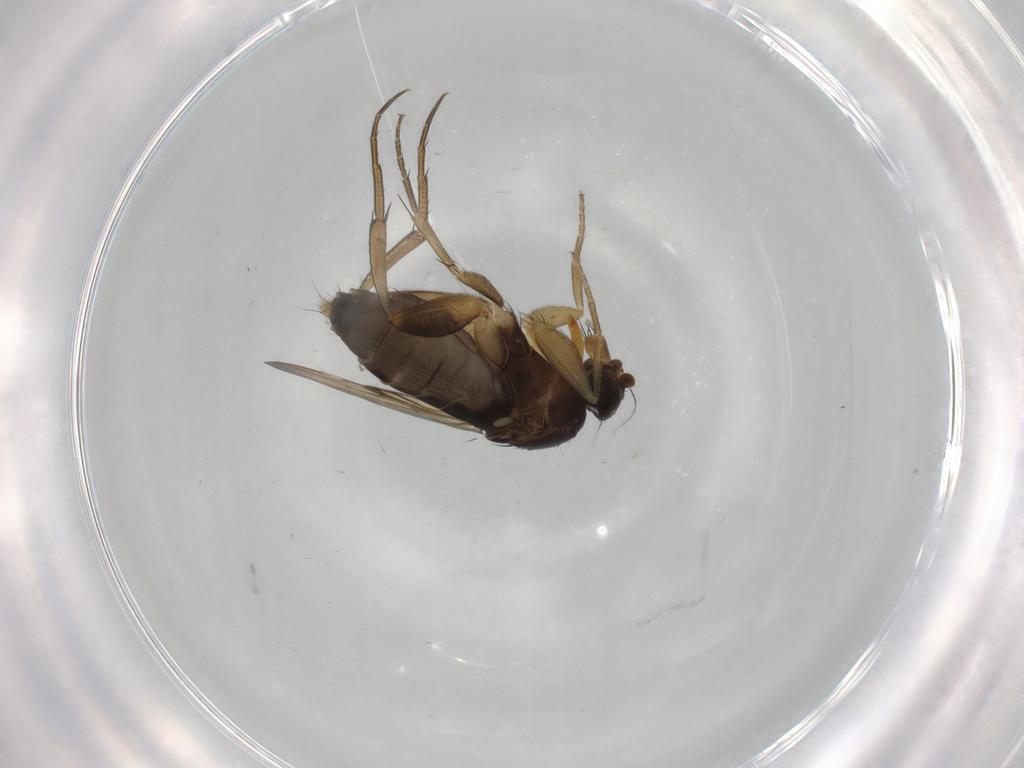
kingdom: Animalia
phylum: Arthropoda
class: Insecta
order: Diptera
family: Phoridae
